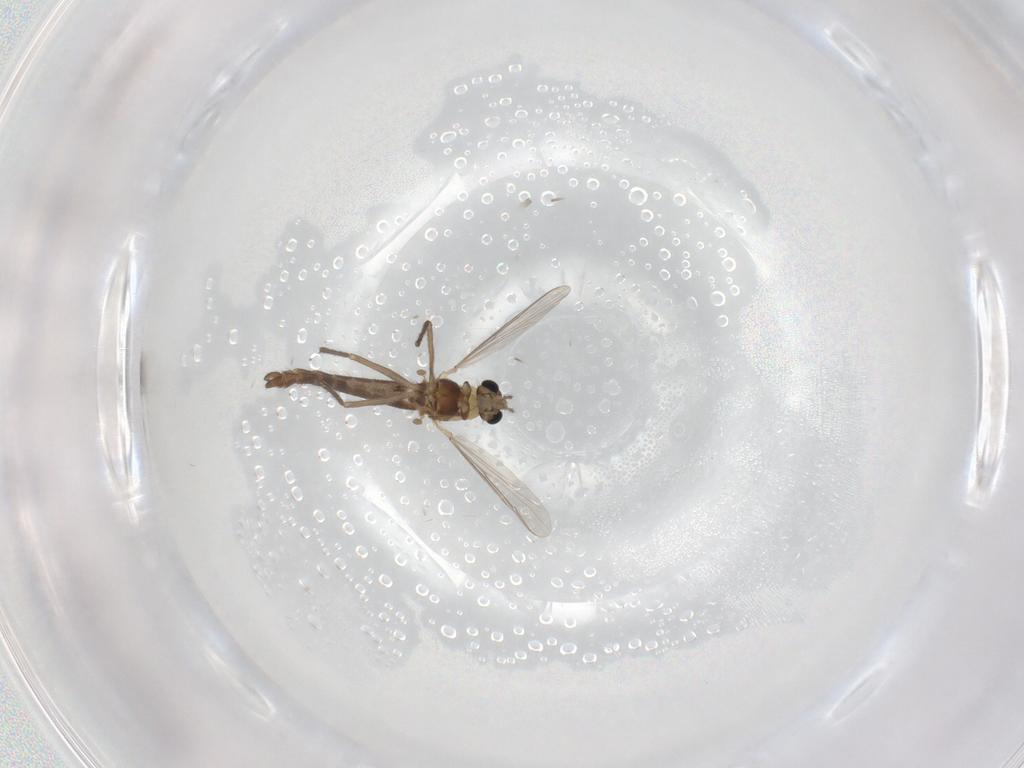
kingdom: Animalia
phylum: Arthropoda
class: Insecta
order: Diptera
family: Chironomidae
